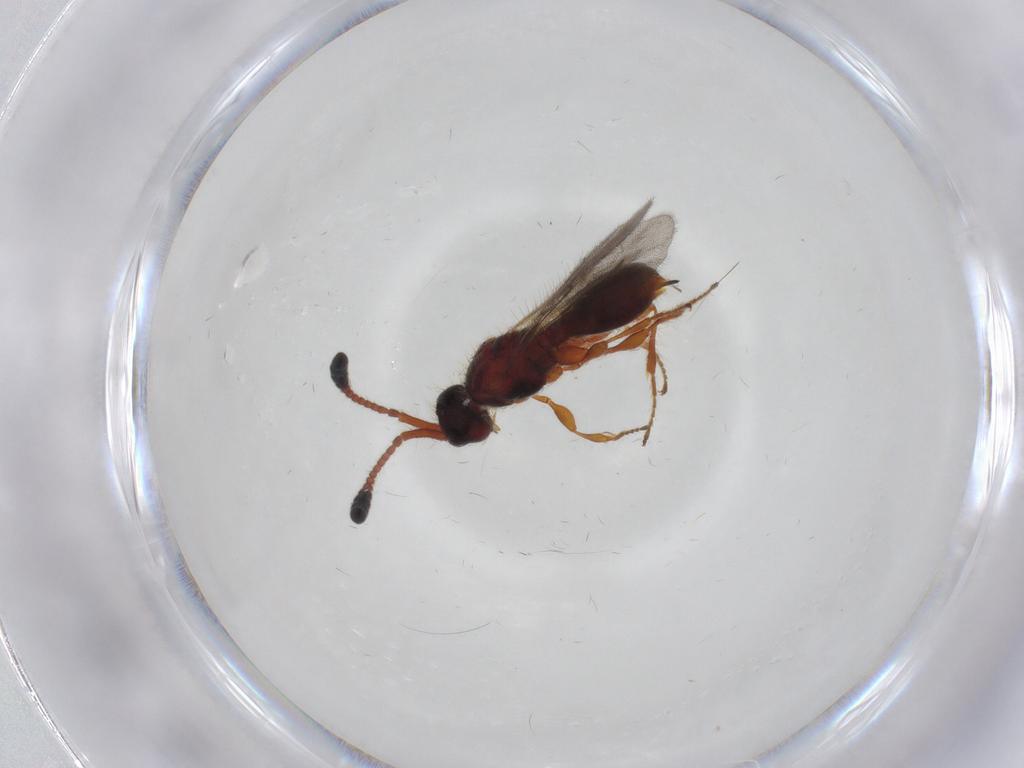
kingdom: Animalia
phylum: Arthropoda
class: Insecta
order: Hymenoptera
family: Diapriidae
